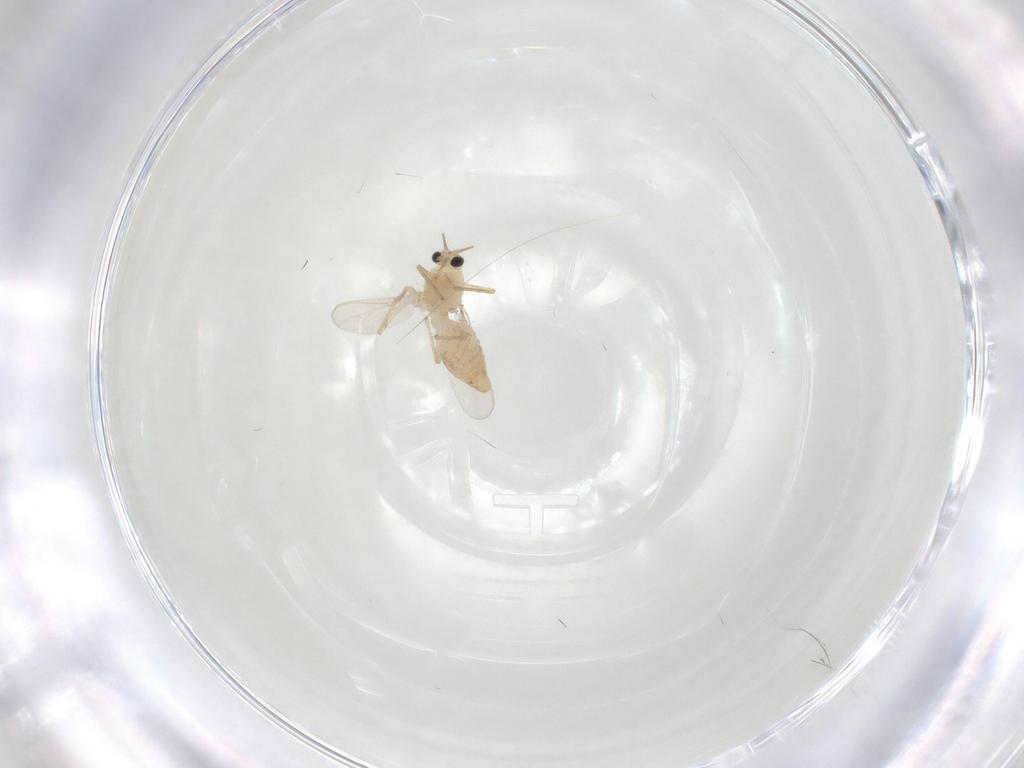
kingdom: Animalia
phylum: Arthropoda
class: Insecta
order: Diptera
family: Chironomidae
